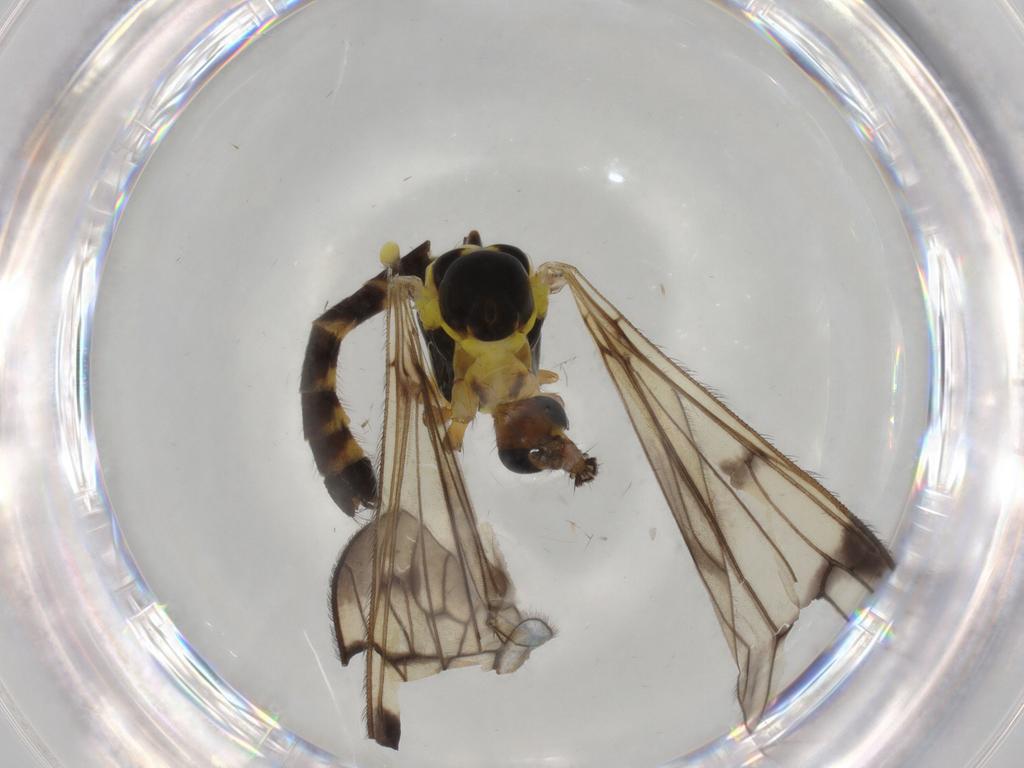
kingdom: Animalia
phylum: Arthropoda
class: Insecta
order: Diptera
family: Limoniidae
